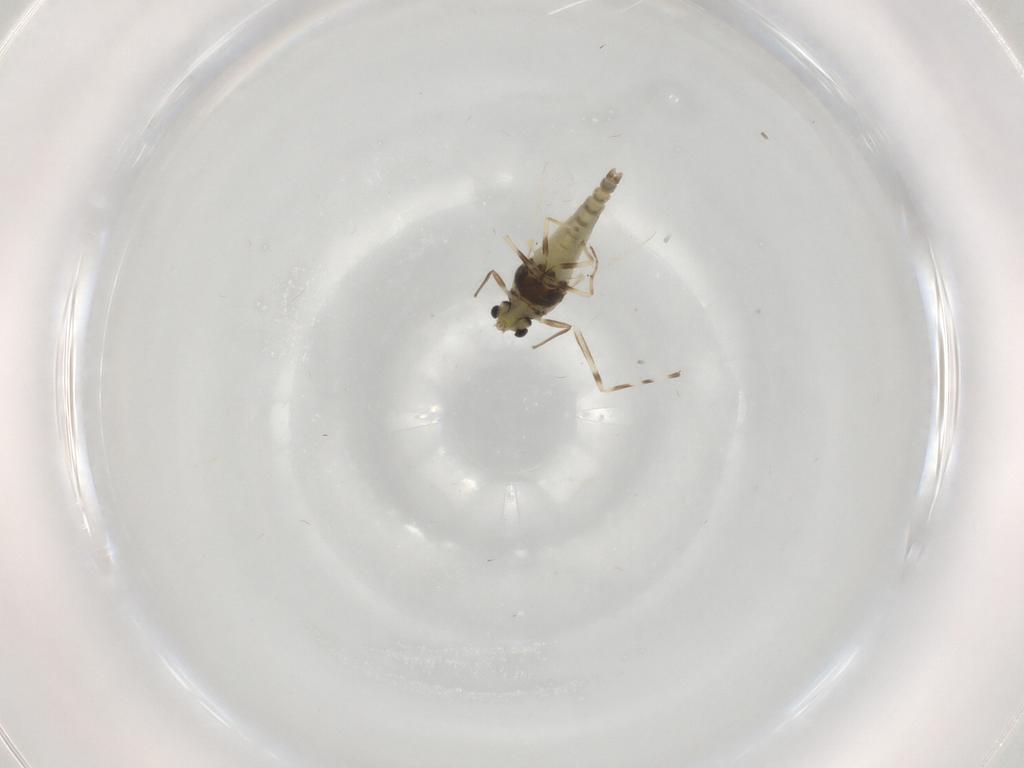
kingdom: Animalia
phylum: Arthropoda
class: Insecta
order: Diptera
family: Chironomidae
